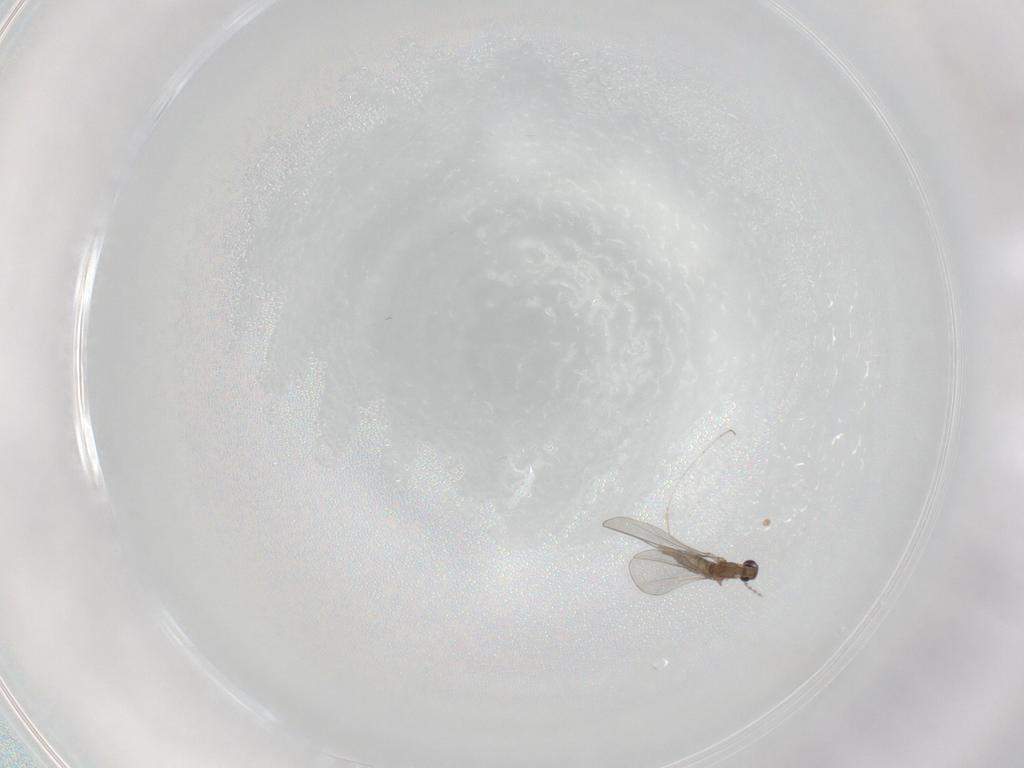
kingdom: Animalia
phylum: Arthropoda
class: Insecta
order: Diptera
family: Cecidomyiidae
